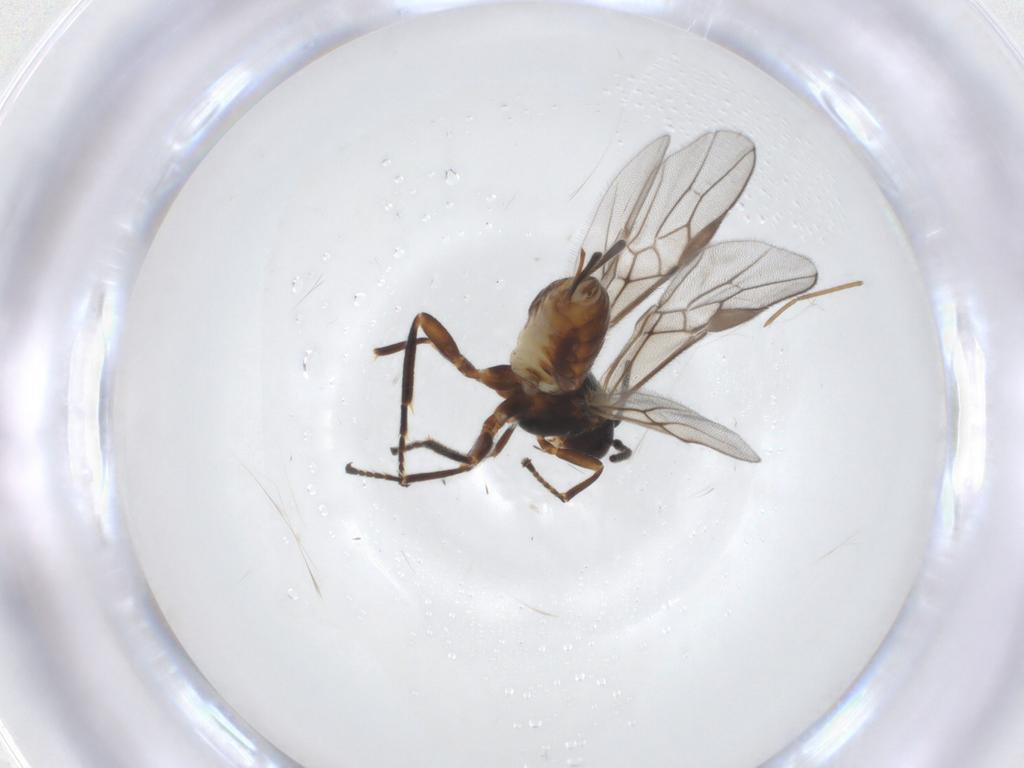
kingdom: Animalia
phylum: Arthropoda
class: Insecta
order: Hymenoptera
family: Braconidae
